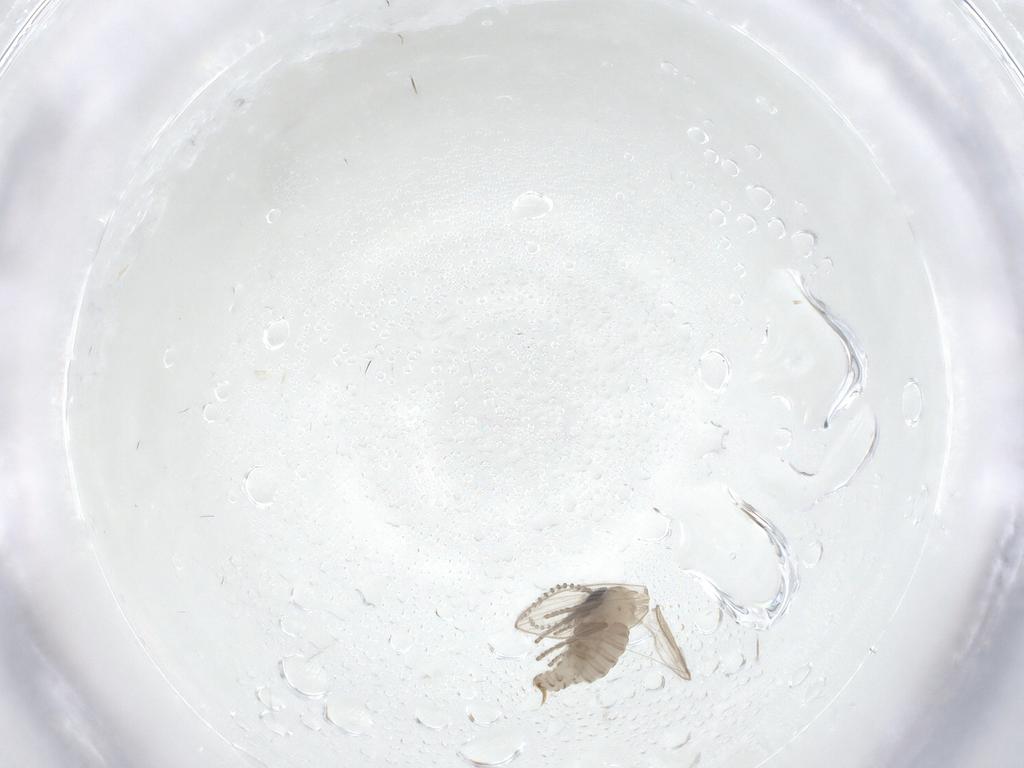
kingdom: Animalia
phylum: Arthropoda
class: Insecta
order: Diptera
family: Psychodidae
